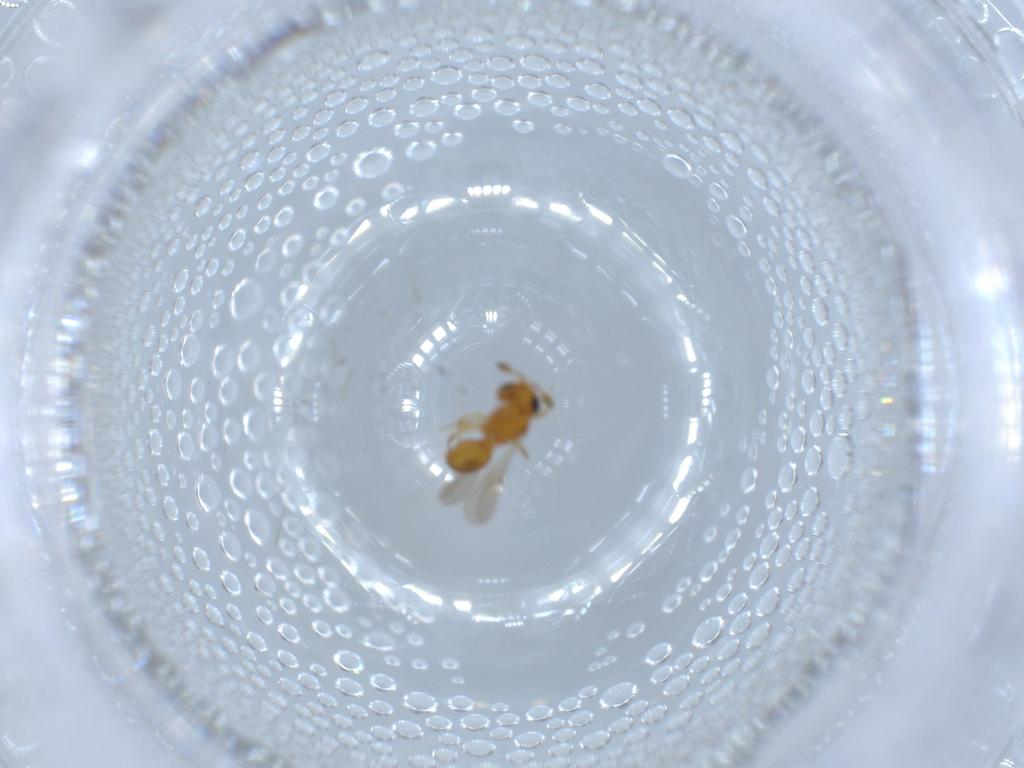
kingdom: Animalia
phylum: Arthropoda
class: Insecta
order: Hymenoptera
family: Scelionidae
